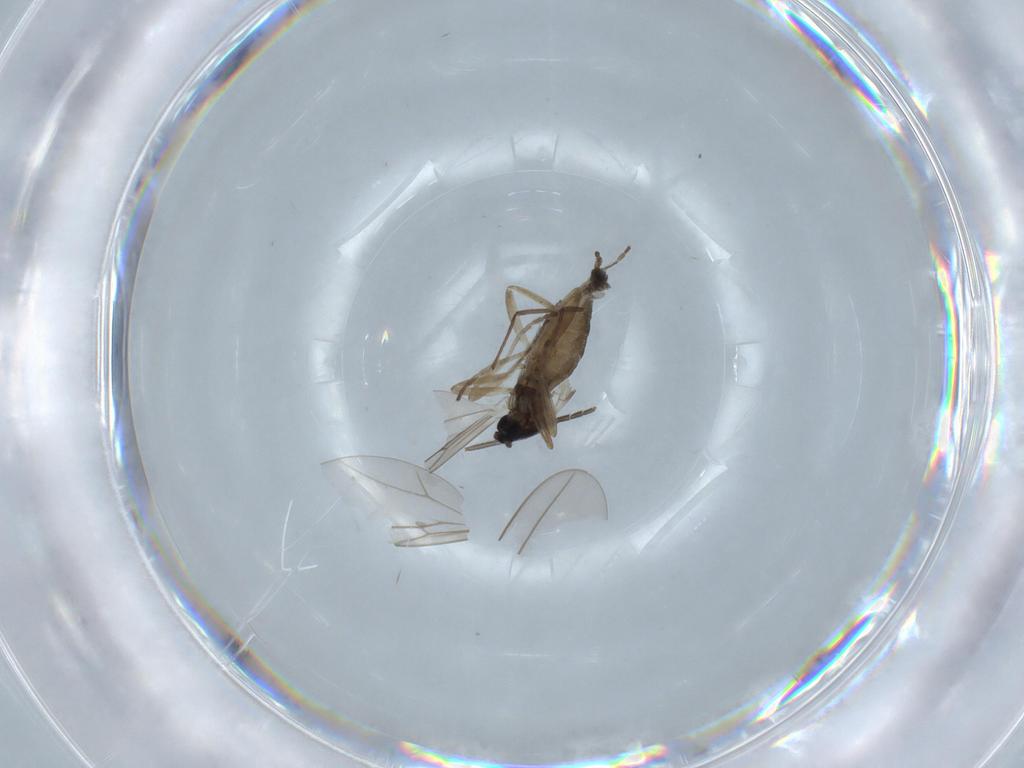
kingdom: Animalia
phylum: Arthropoda
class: Insecta
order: Diptera
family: Cecidomyiidae
